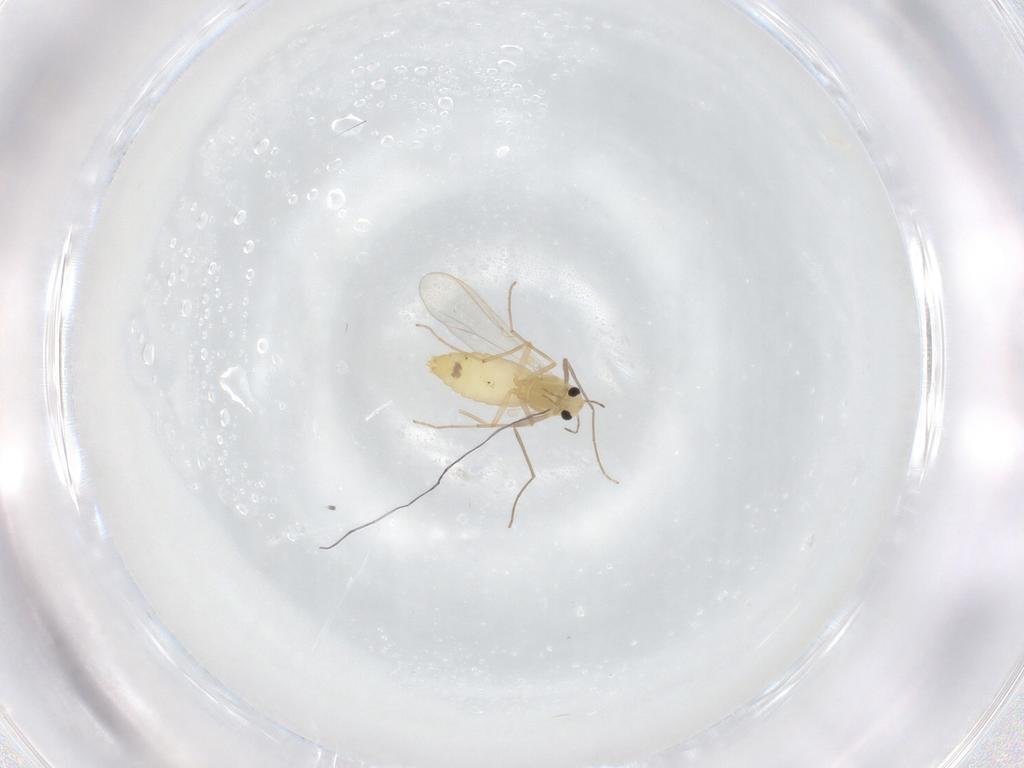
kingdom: Animalia
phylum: Arthropoda
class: Insecta
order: Diptera
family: Chironomidae
